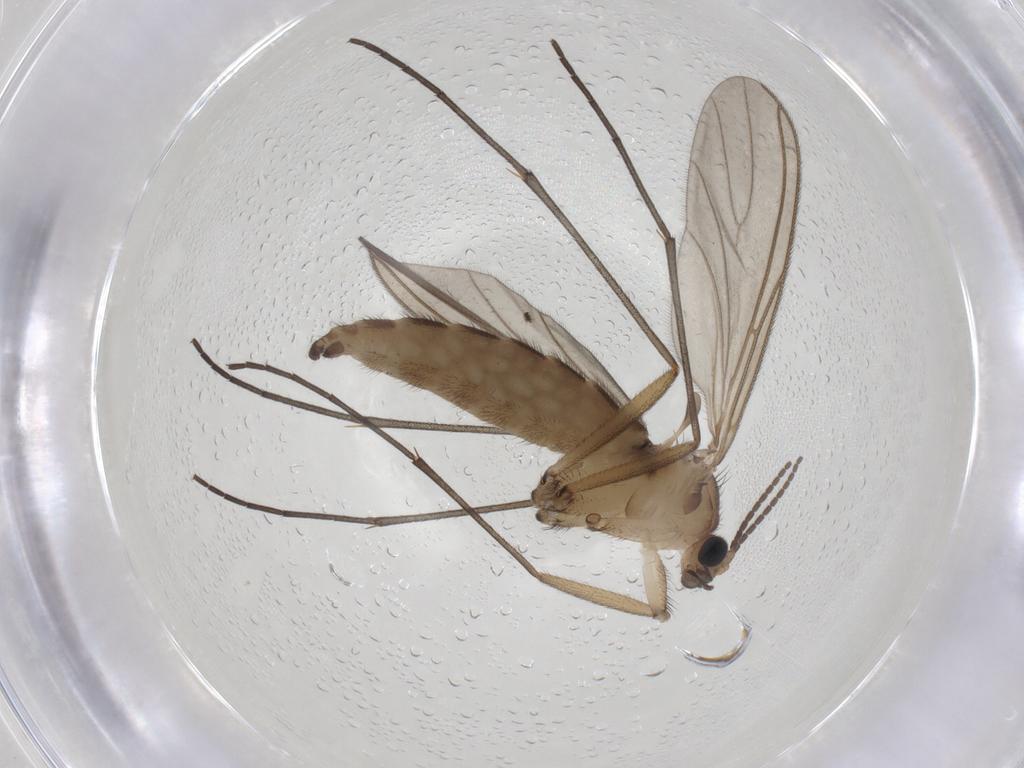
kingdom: Animalia
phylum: Arthropoda
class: Insecta
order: Diptera
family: Sciaridae
